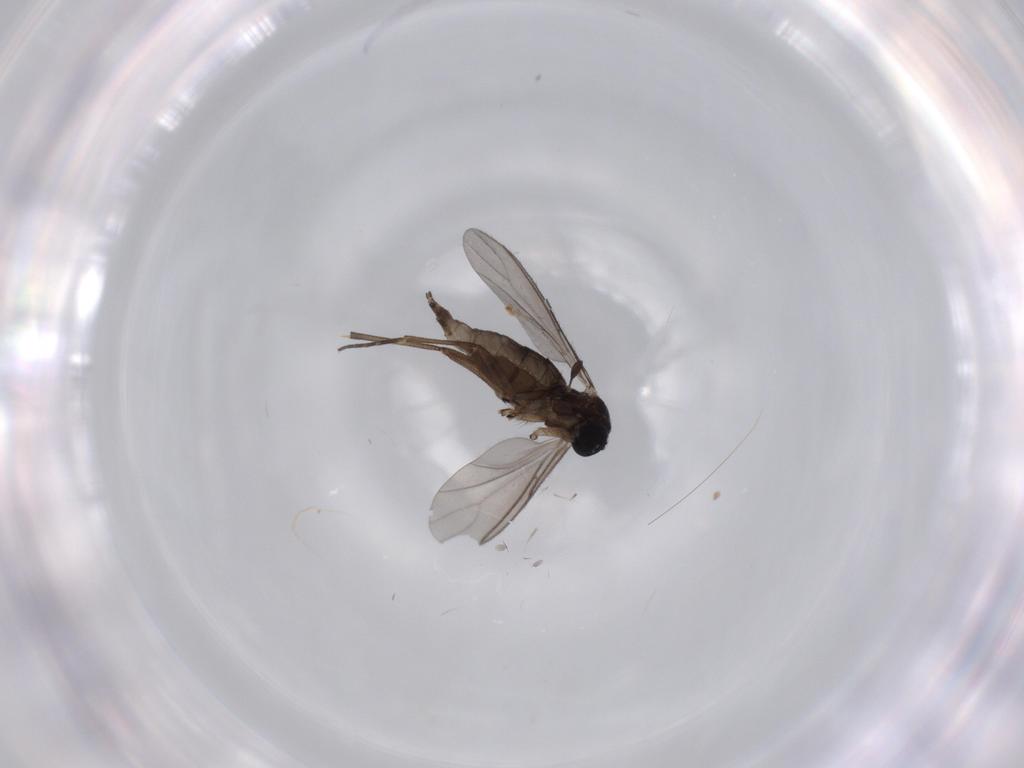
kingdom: Animalia
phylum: Arthropoda
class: Insecta
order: Diptera
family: Sciaridae
